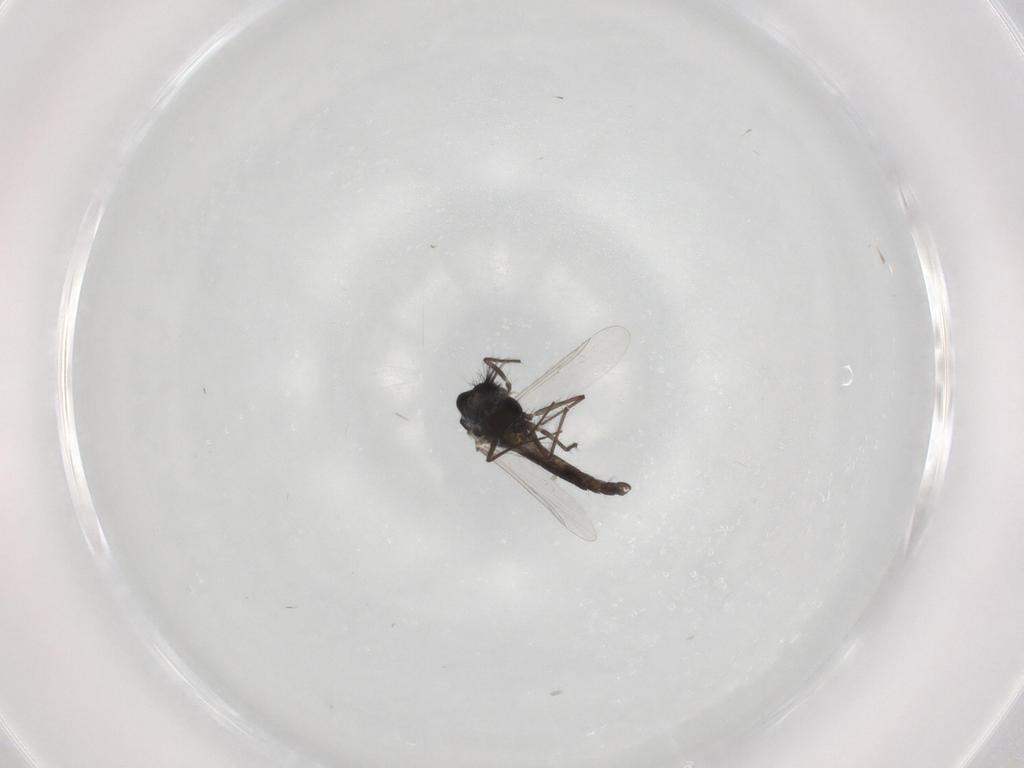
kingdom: Animalia
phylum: Arthropoda
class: Insecta
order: Diptera
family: Chironomidae
